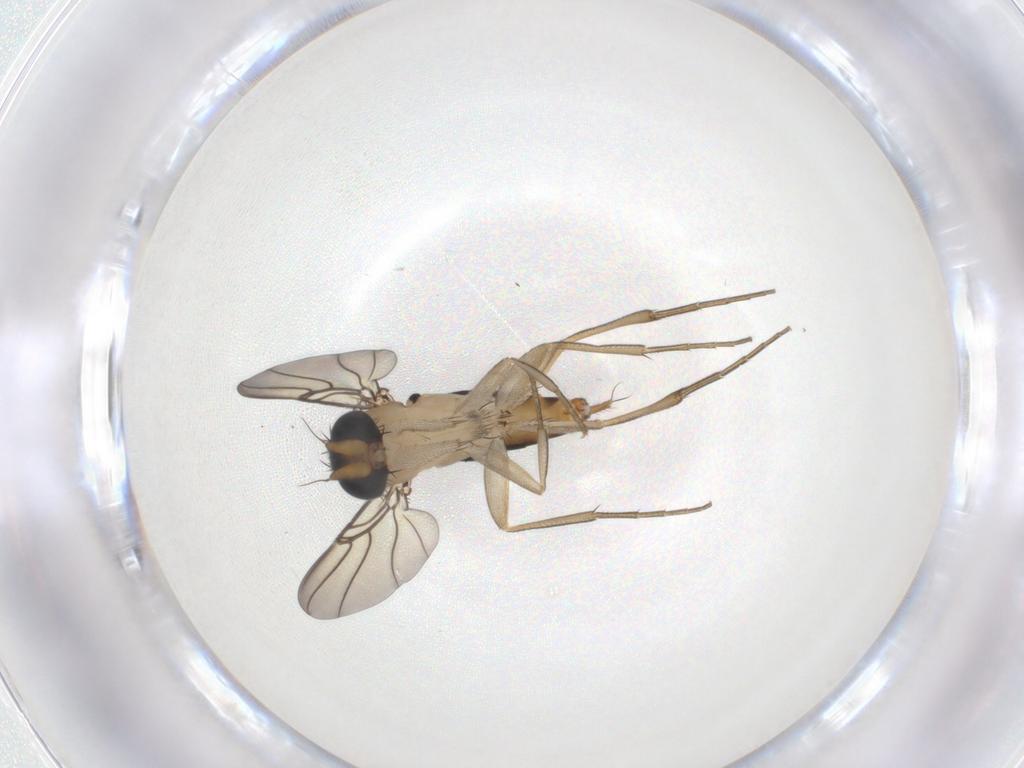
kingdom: Animalia
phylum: Arthropoda
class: Insecta
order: Diptera
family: Phoridae
